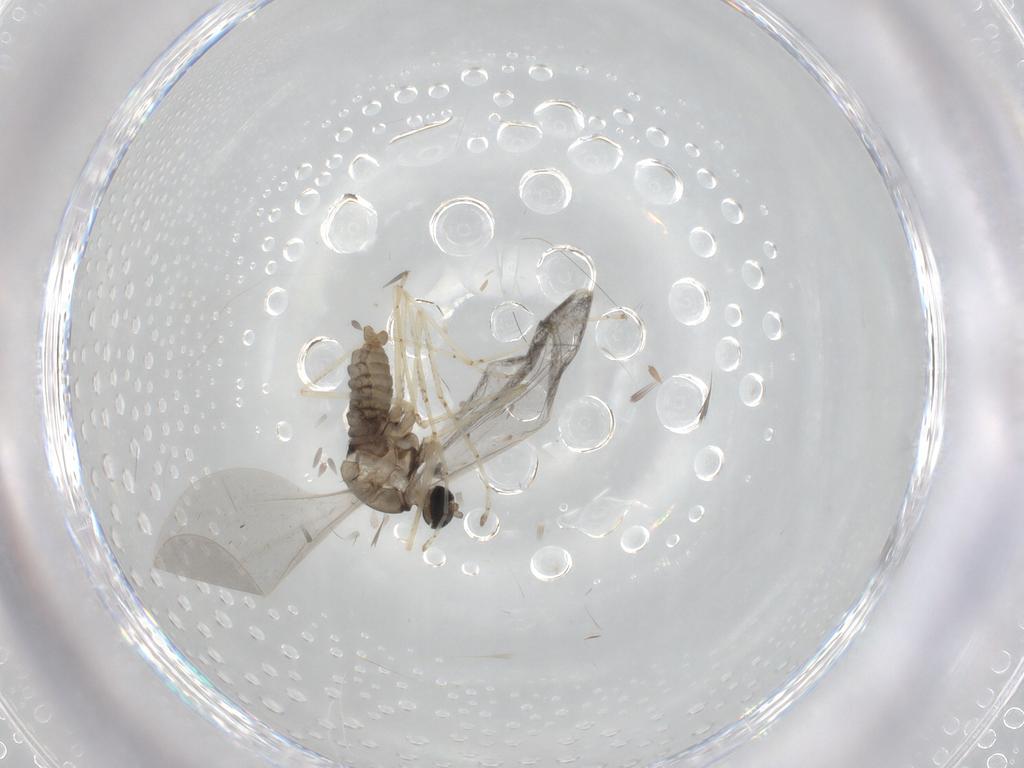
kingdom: Animalia
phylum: Arthropoda
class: Insecta
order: Diptera
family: Cecidomyiidae
